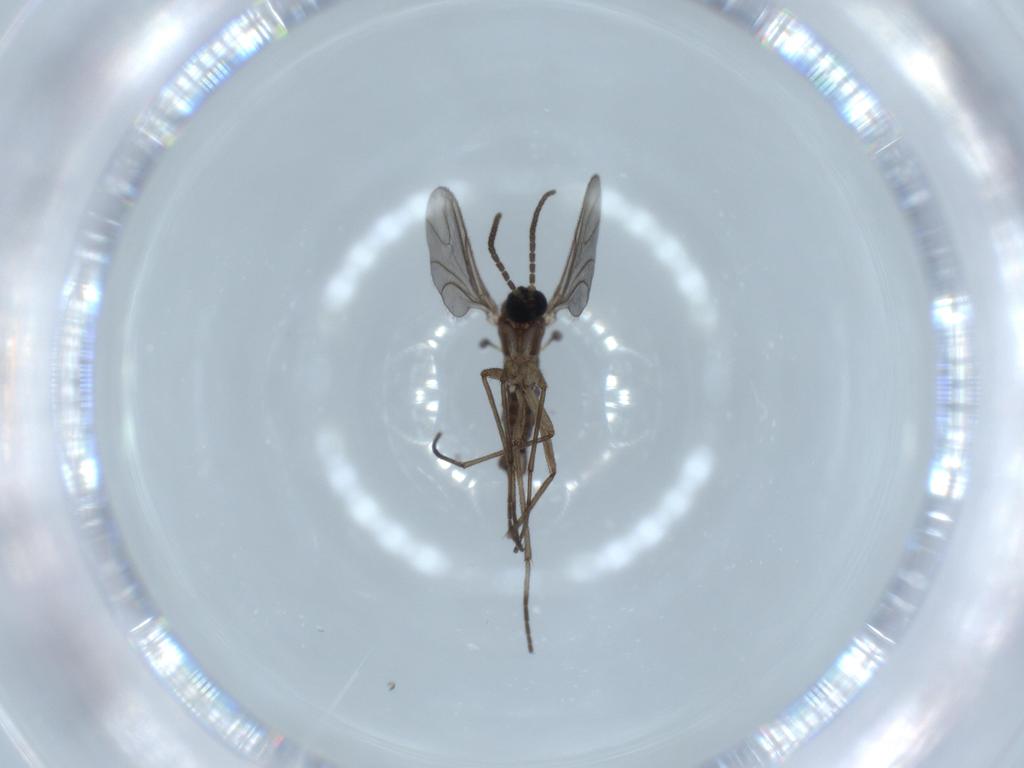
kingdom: Animalia
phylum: Arthropoda
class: Insecta
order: Diptera
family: Sciaridae
